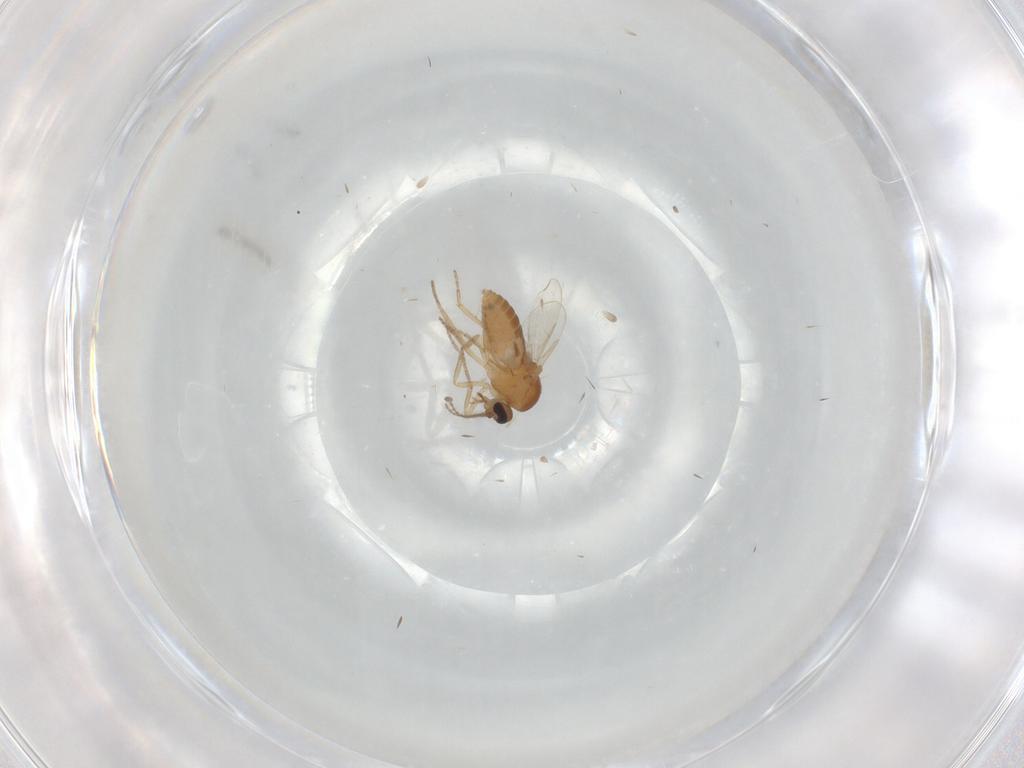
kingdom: Animalia
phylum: Arthropoda
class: Insecta
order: Diptera
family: Ceratopogonidae
